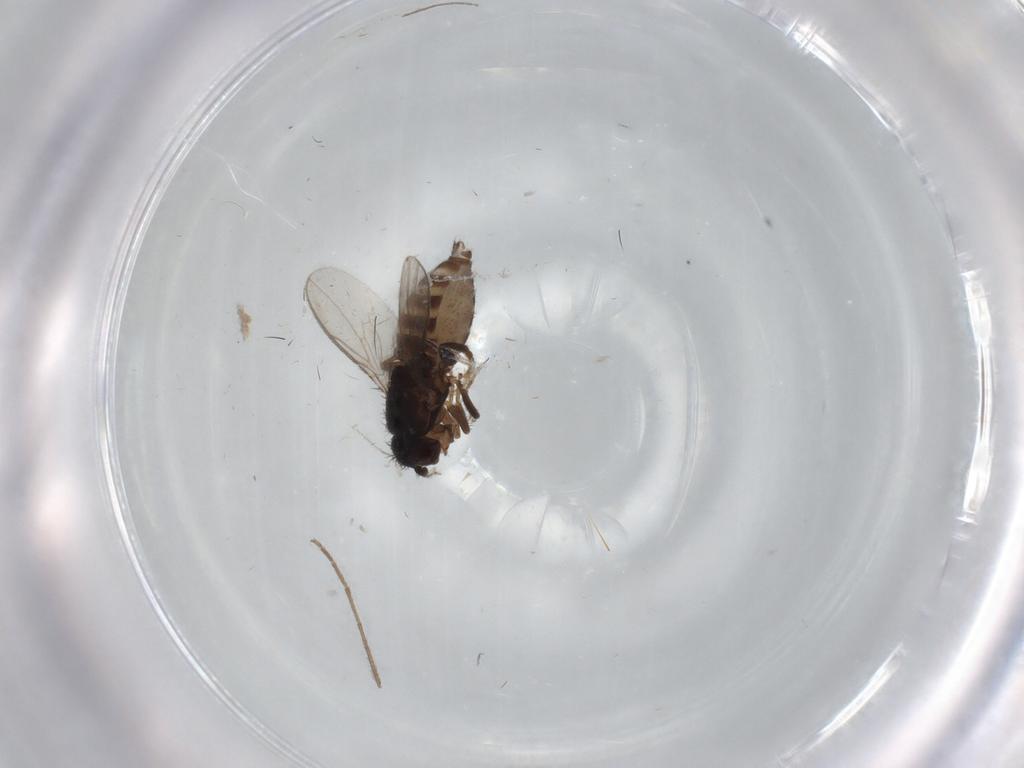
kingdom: Animalia
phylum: Arthropoda
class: Insecta
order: Diptera
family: Sphaeroceridae
